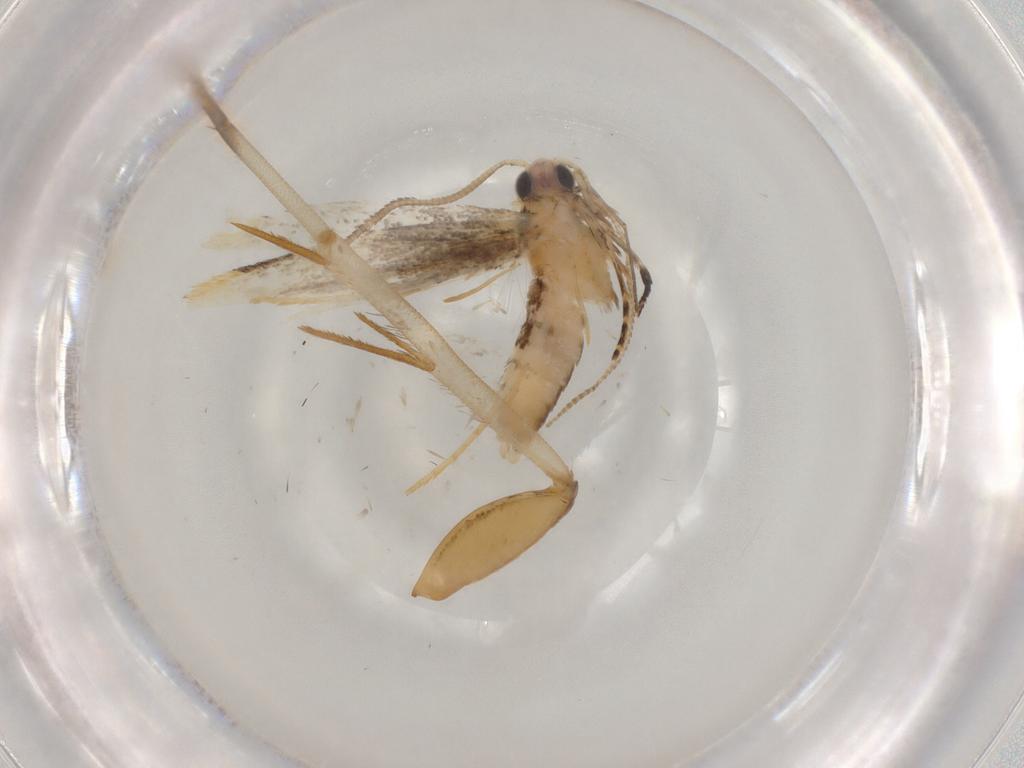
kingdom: Animalia
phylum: Arthropoda
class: Insecta
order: Lepidoptera
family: Lecithoceridae
